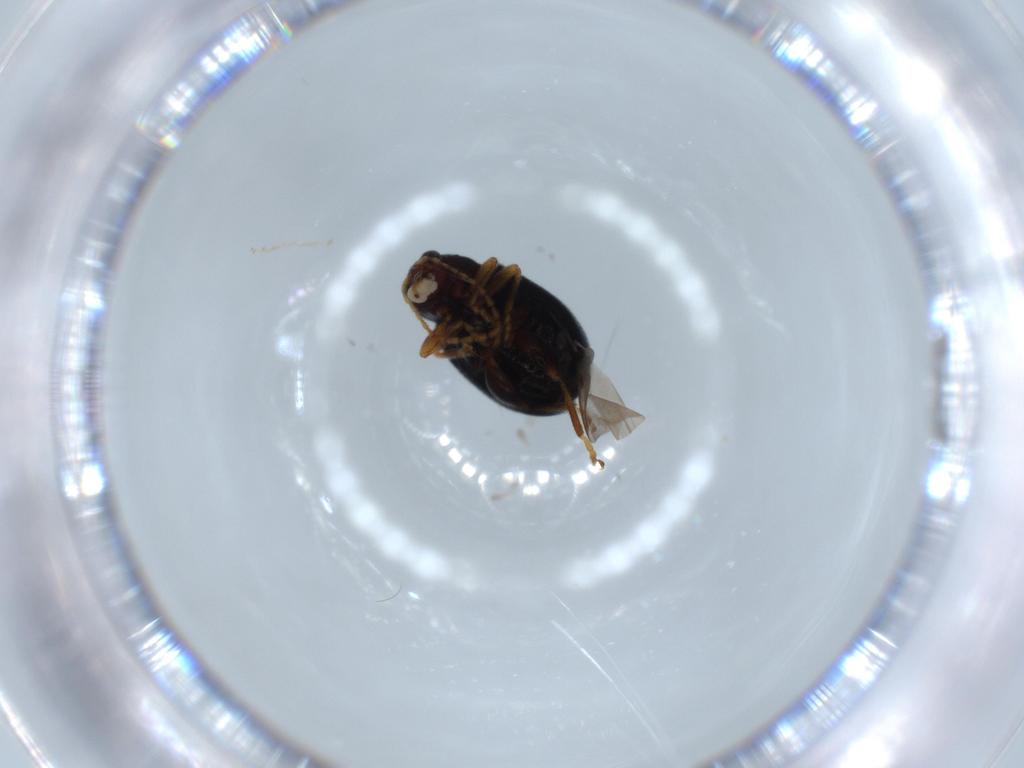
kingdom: Animalia
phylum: Arthropoda
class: Insecta
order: Coleoptera
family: Chrysomelidae
